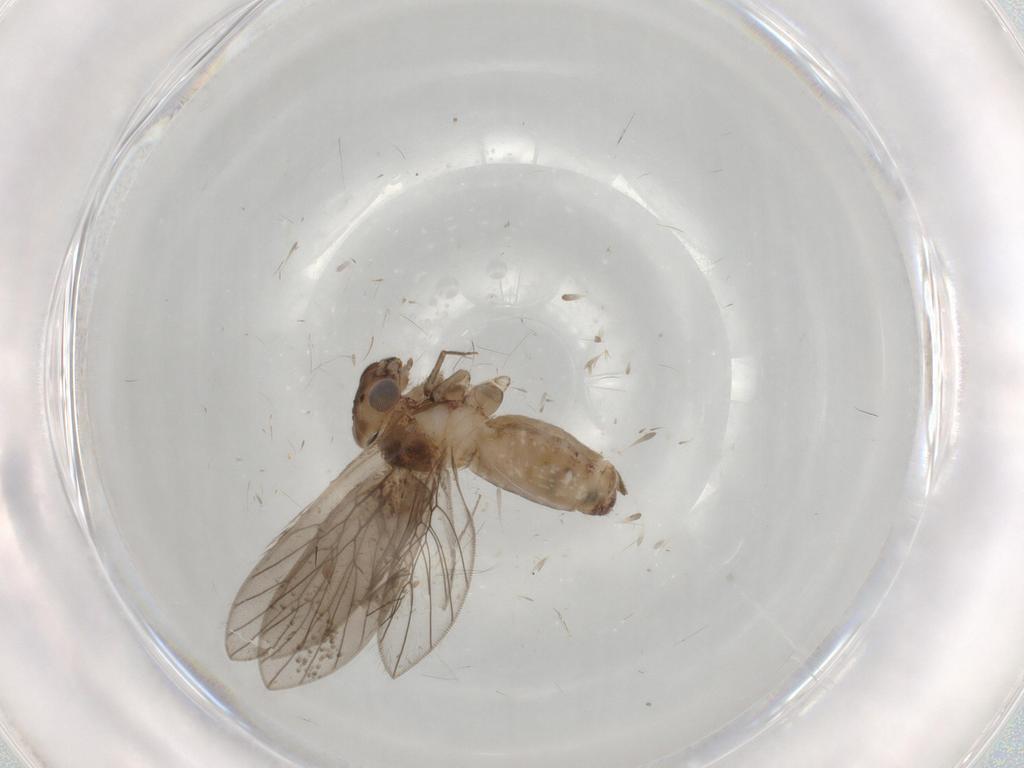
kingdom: Animalia
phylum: Arthropoda
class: Insecta
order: Psocodea
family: Lepidopsocidae
